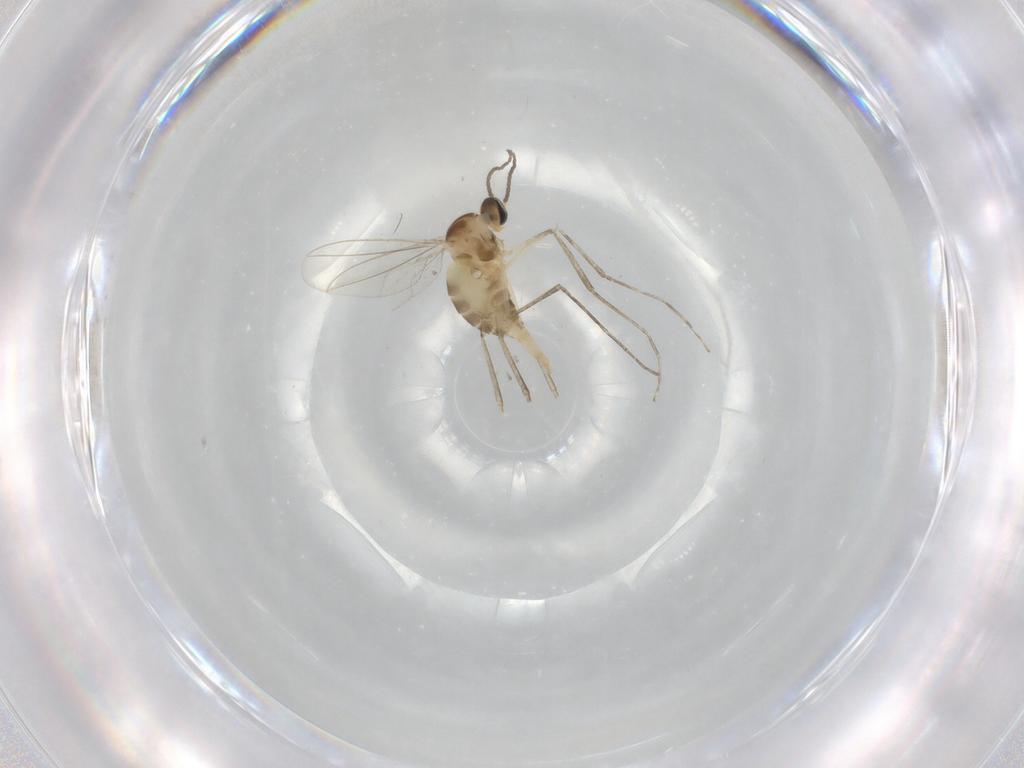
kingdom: Animalia
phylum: Arthropoda
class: Insecta
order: Diptera
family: Cecidomyiidae
